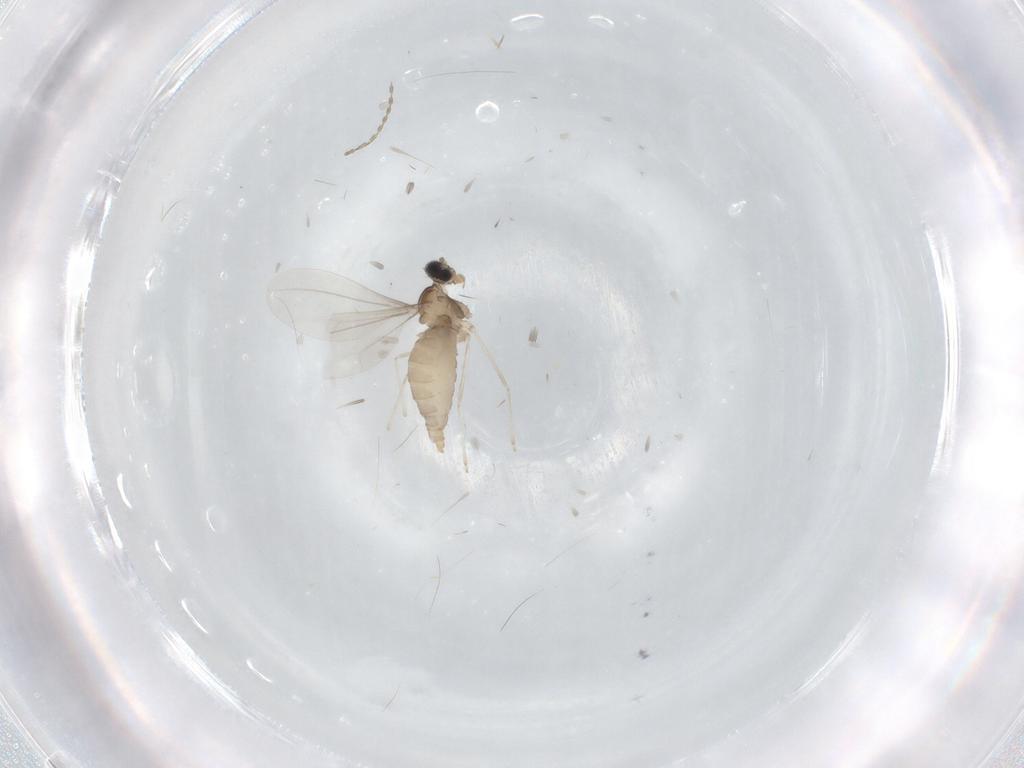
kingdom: Animalia
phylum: Arthropoda
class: Insecta
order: Diptera
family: Cecidomyiidae
